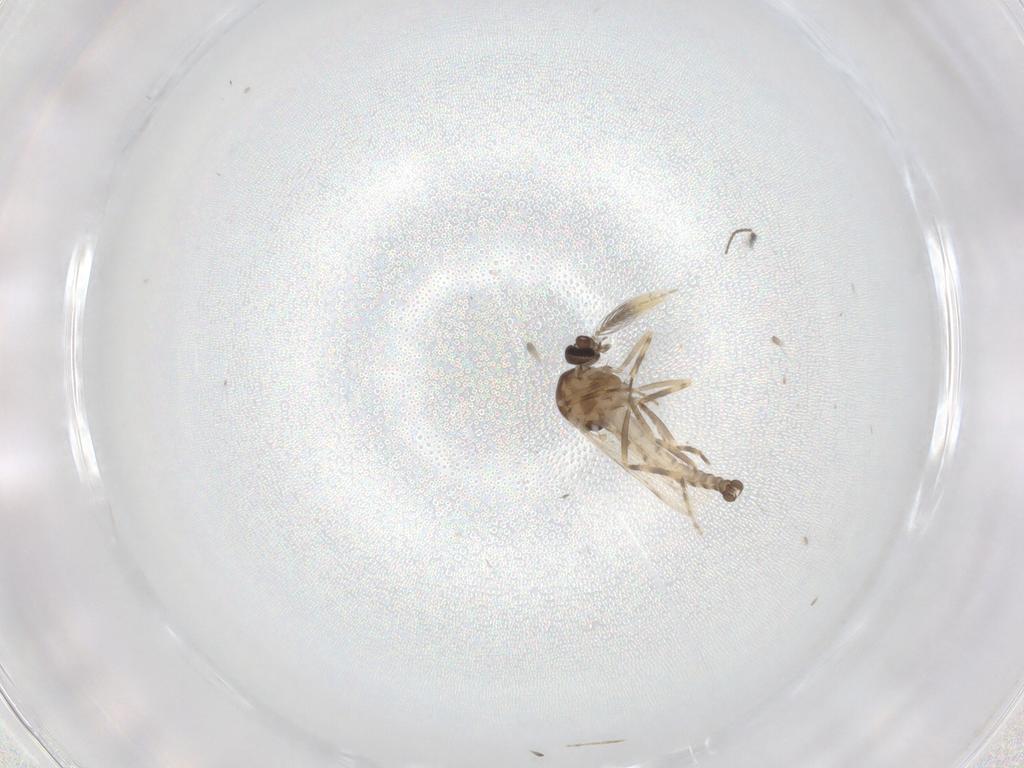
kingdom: Animalia
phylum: Arthropoda
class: Insecta
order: Diptera
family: Ceratopogonidae
